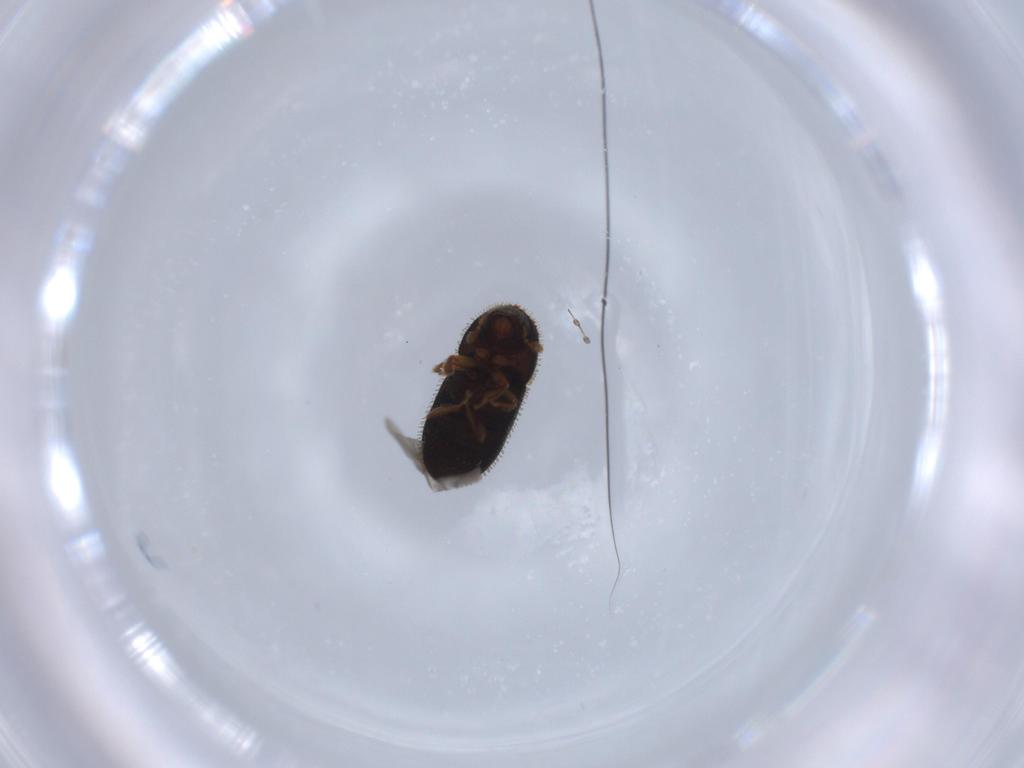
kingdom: Animalia
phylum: Arthropoda
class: Insecta
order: Coleoptera
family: Curculionidae
